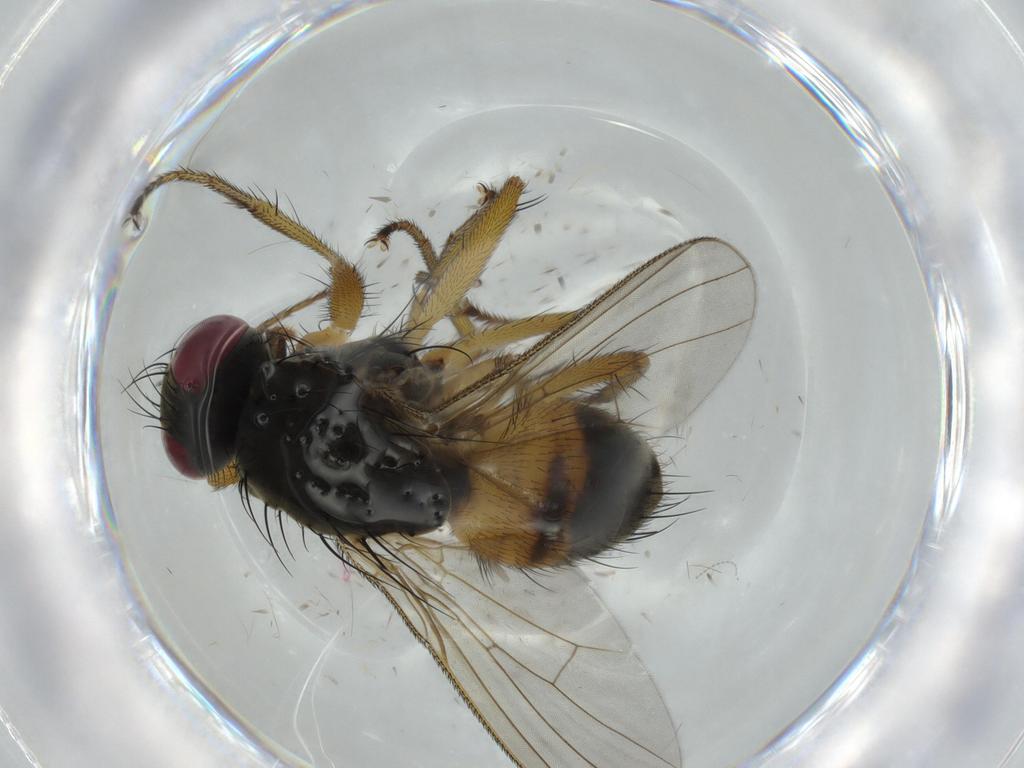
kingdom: Animalia
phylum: Arthropoda
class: Insecta
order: Diptera
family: Muscidae
